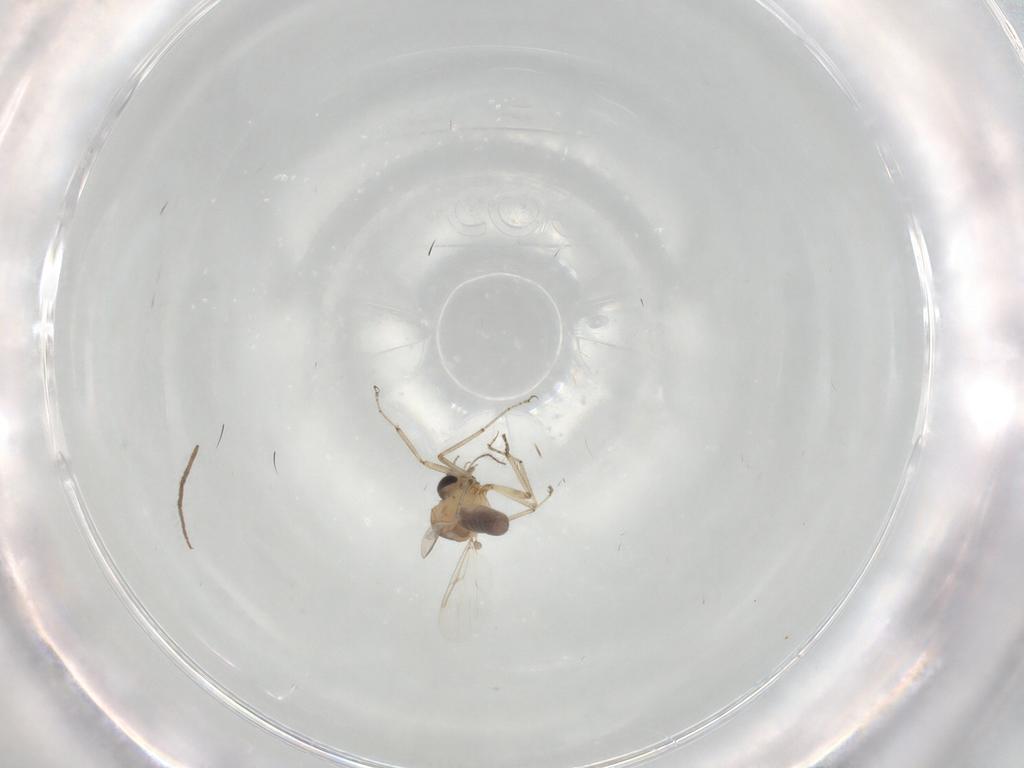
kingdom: Animalia
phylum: Arthropoda
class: Insecta
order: Diptera
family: Ceratopogonidae
